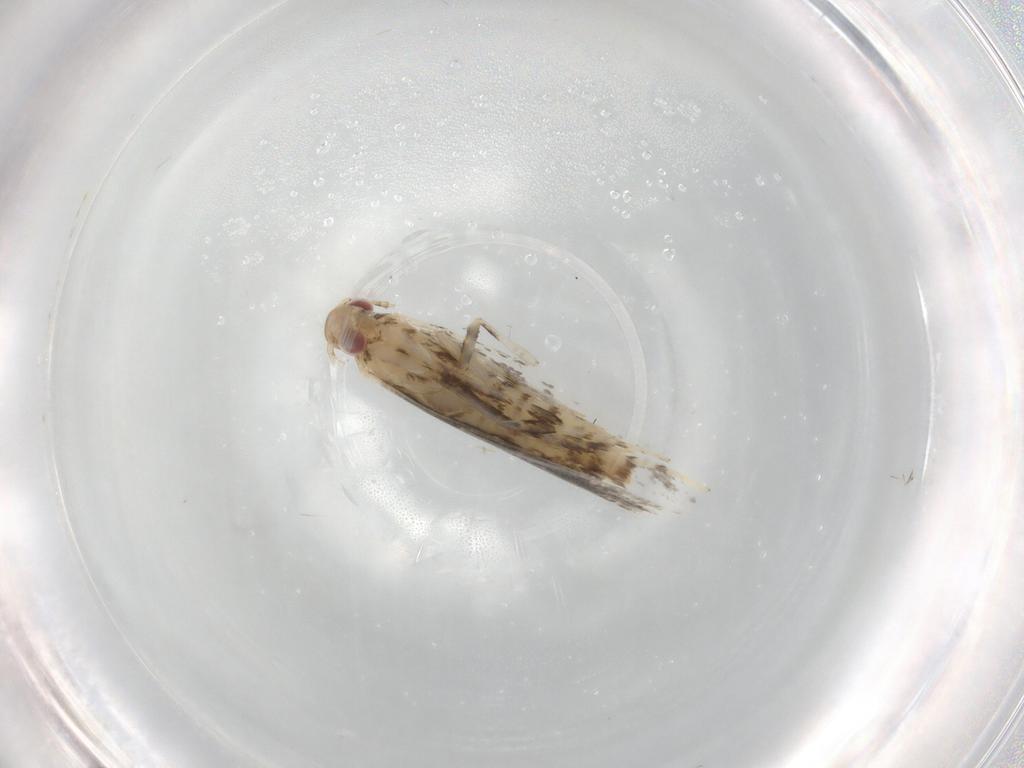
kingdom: Animalia
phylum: Arthropoda
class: Insecta
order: Lepidoptera
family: Gracillariidae
